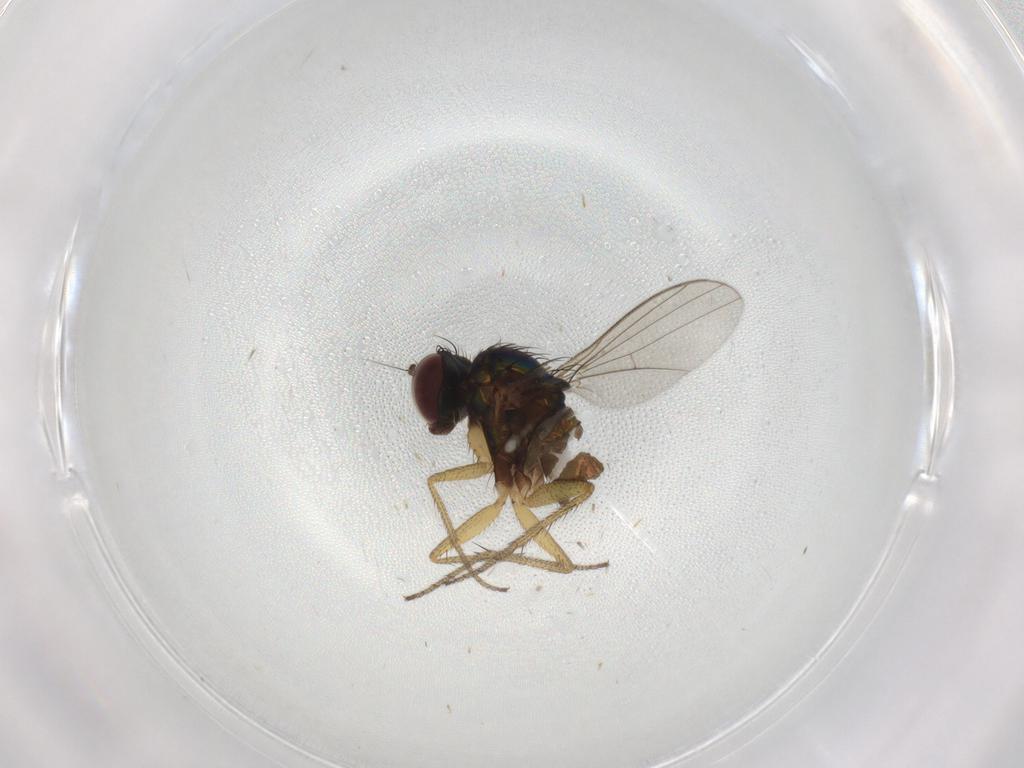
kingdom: Animalia
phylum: Arthropoda
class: Insecta
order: Diptera
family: Dolichopodidae
